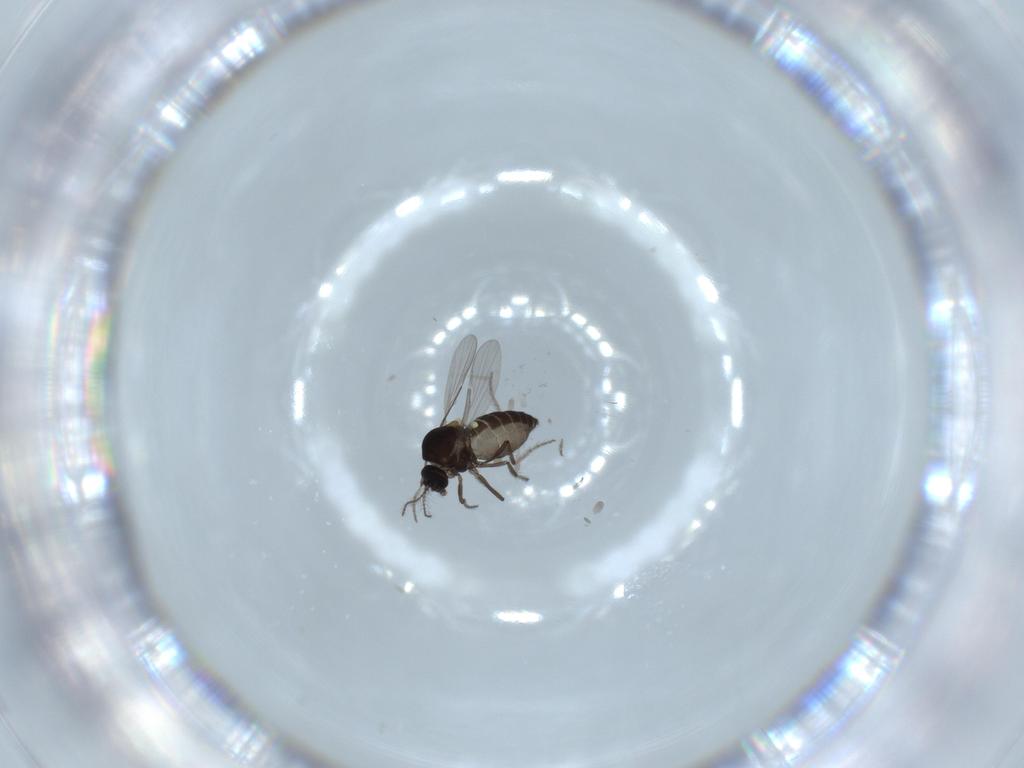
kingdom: Animalia
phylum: Arthropoda
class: Insecta
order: Diptera
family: Ceratopogonidae
